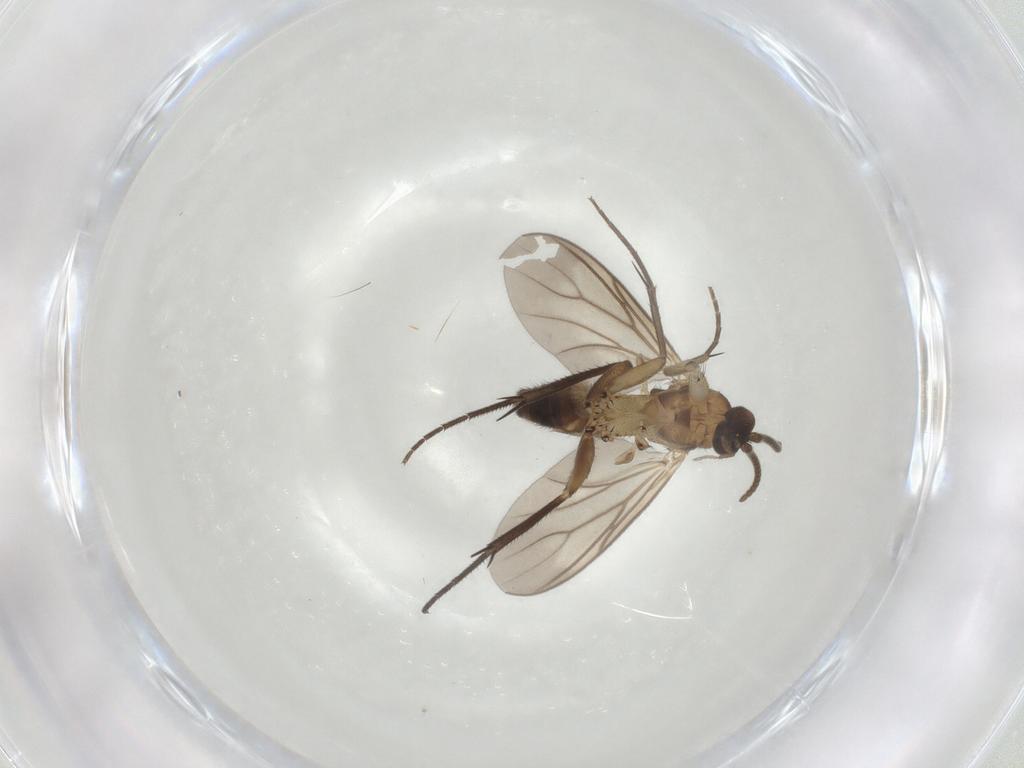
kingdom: Animalia
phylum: Arthropoda
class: Insecta
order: Diptera
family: Mycetophilidae
